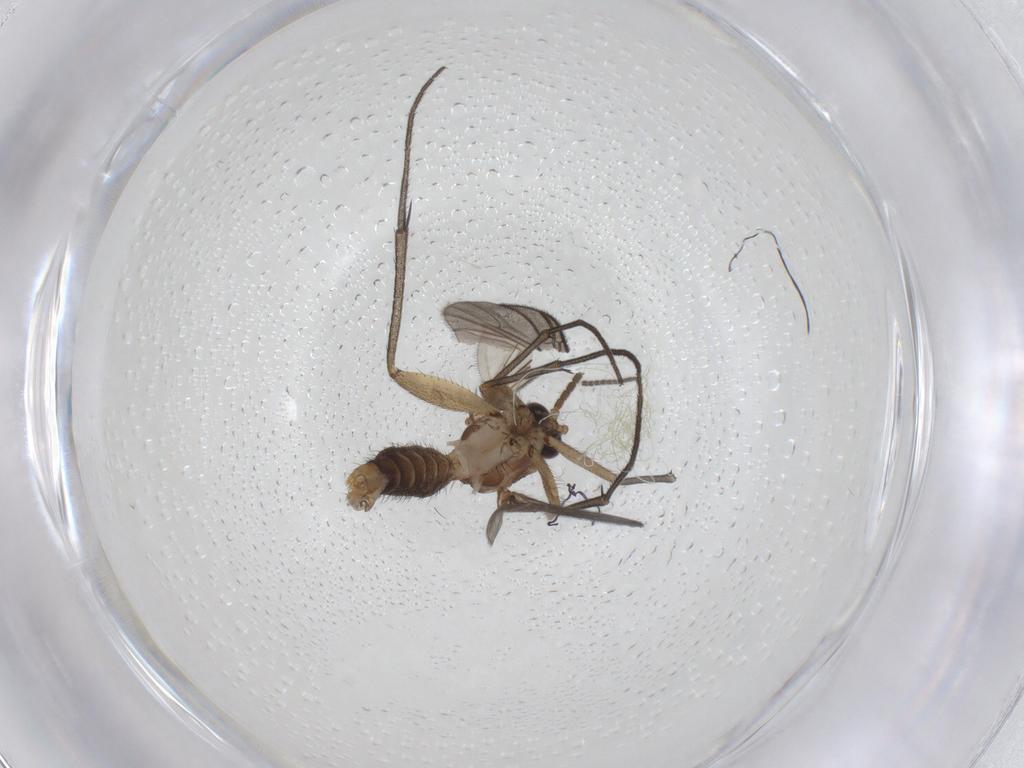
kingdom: Animalia
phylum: Arthropoda
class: Insecta
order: Diptera
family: Mycetophilidae
